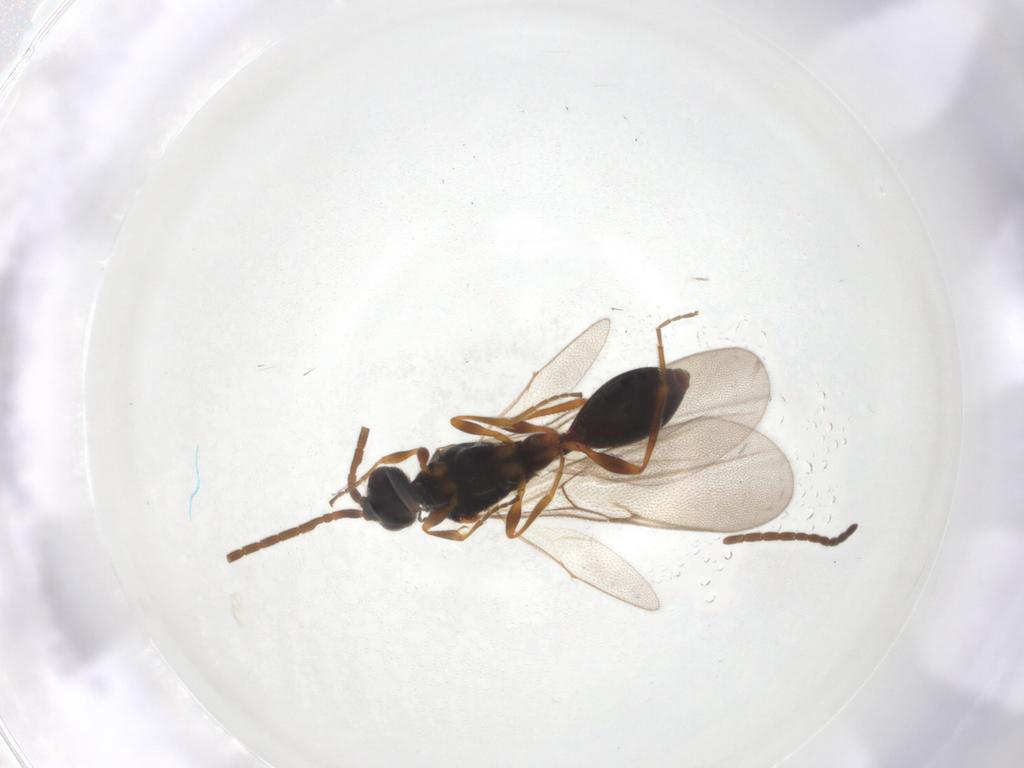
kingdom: Animalia
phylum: Arthropoda
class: Insecta
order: Hymenoptera
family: Diapriidae
